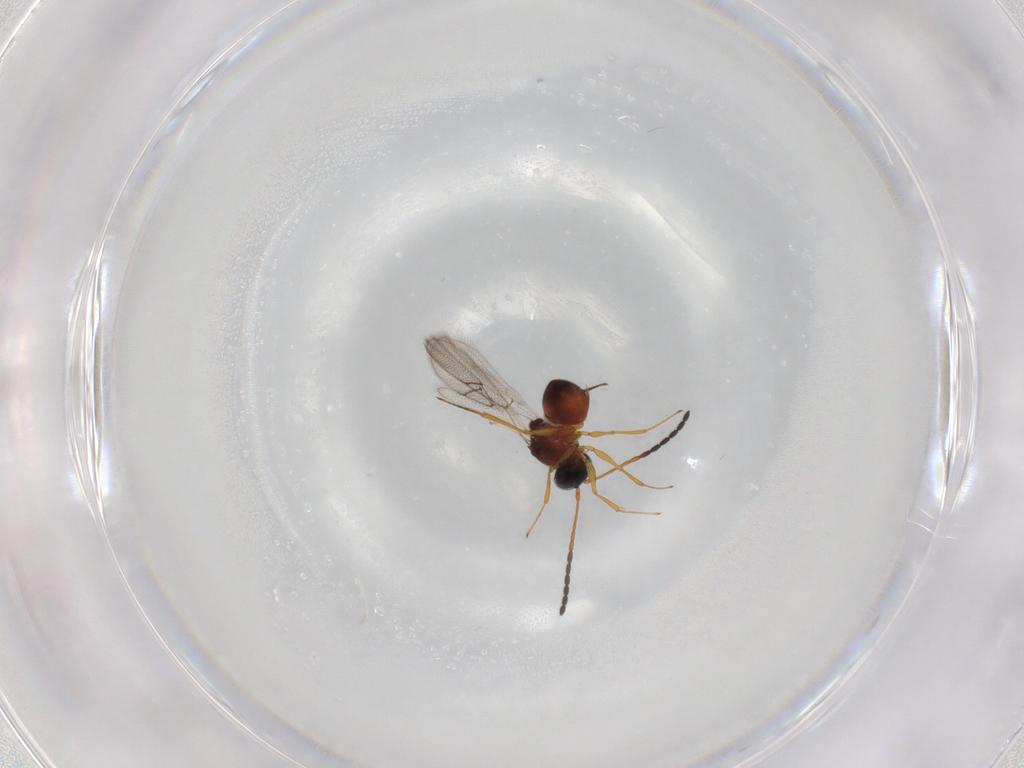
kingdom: Animalia
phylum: Arthropoda
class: Insecta
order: Hymenoptera
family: Figitidae
